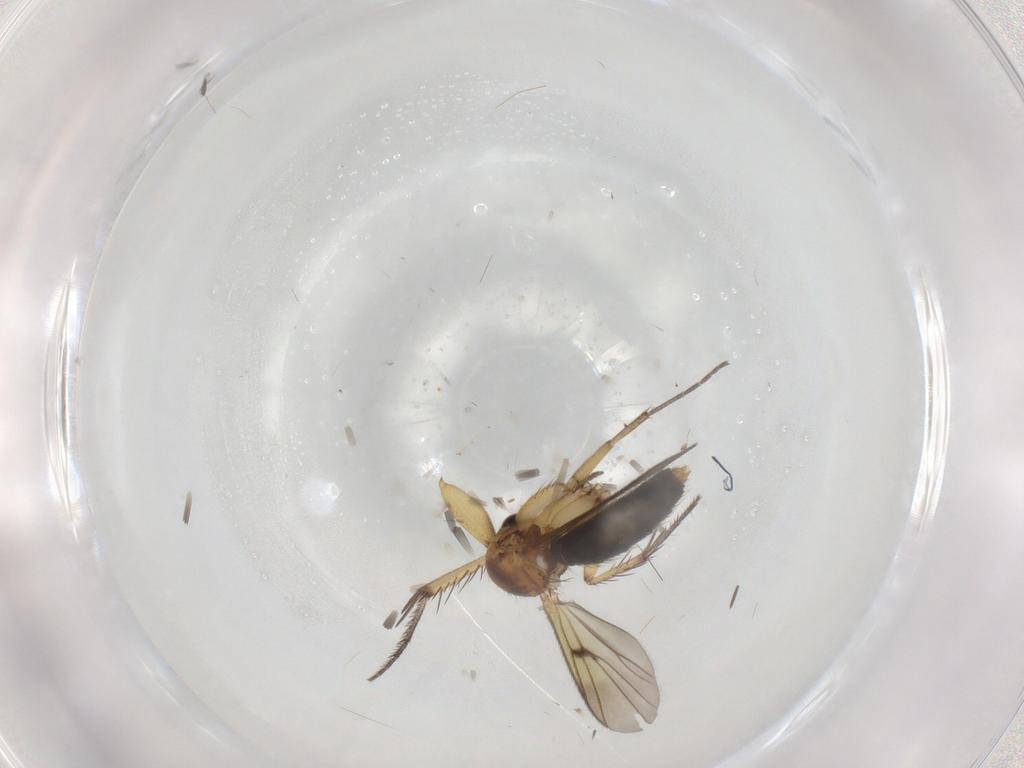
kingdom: Animalia
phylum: Arthropoda
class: Insecta
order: Diptera
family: Mycetophilidae
